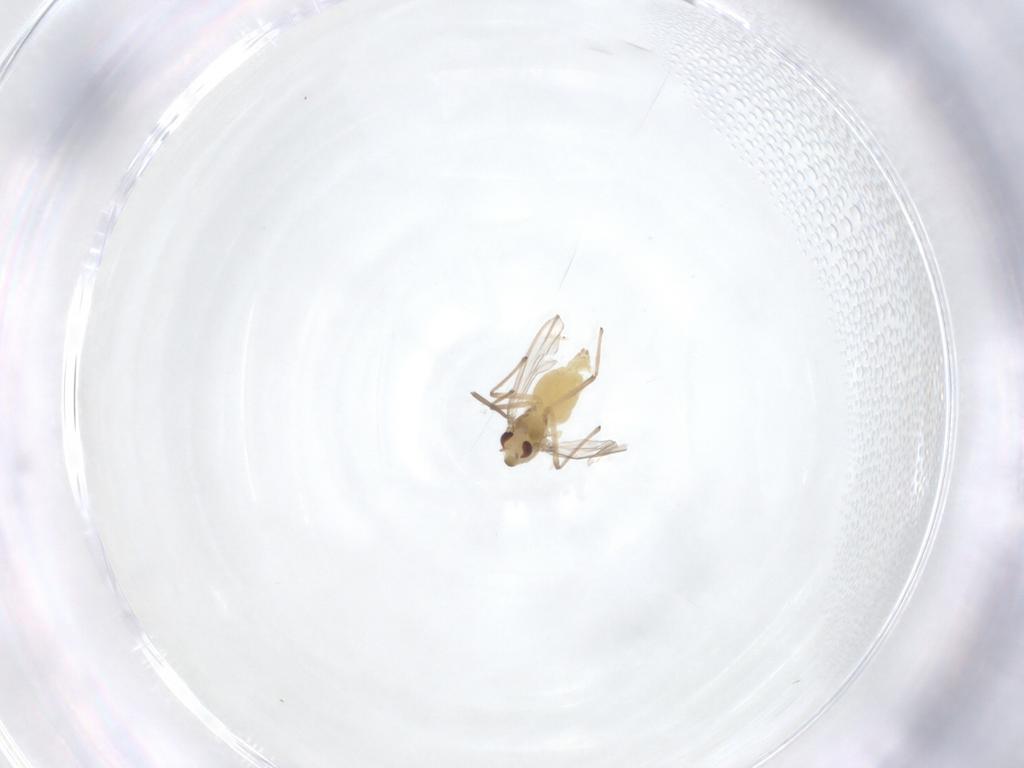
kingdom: Animalia
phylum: Arthropoda
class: Insecta
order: Diptera
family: Chironomidae
